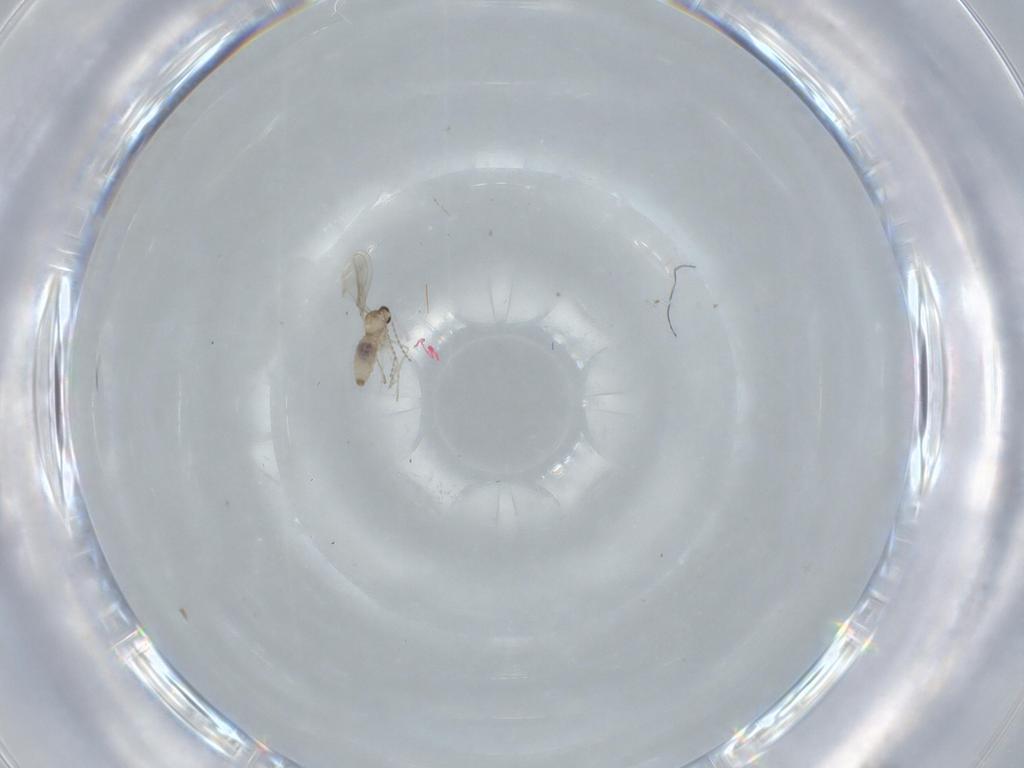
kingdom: Animalia
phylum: Arthropoda
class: Insecta
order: Diptera
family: Cecidomyiidae
